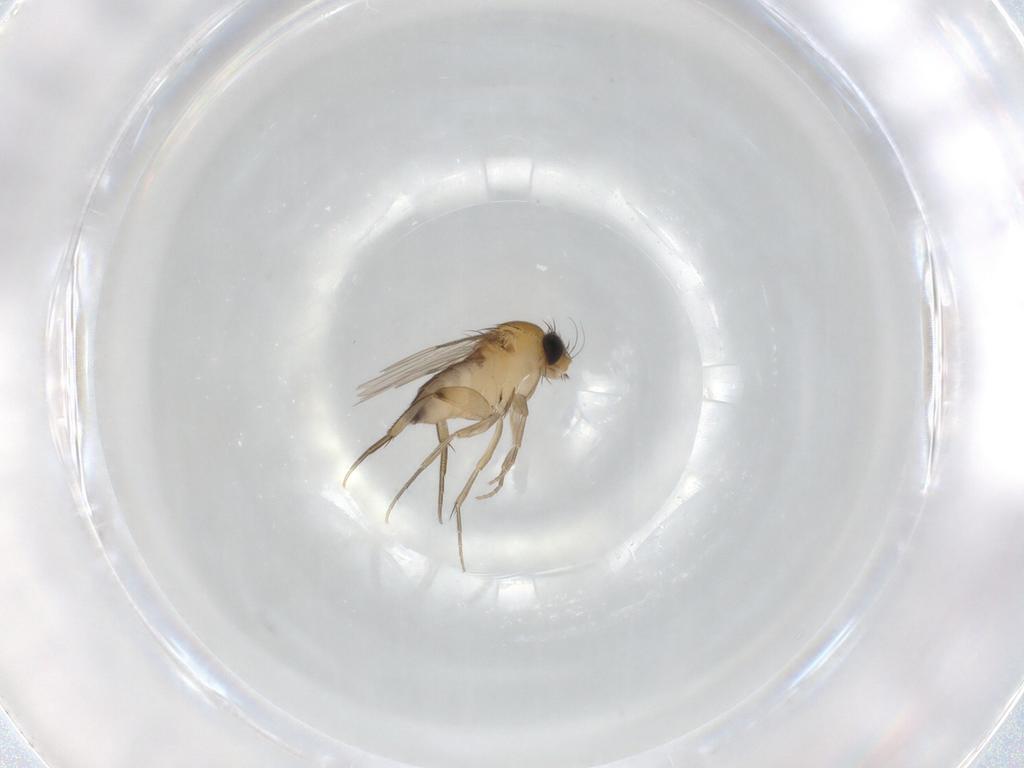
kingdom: Animalia
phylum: Arthropoda
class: Insecta
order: Diptera
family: Phoridae
